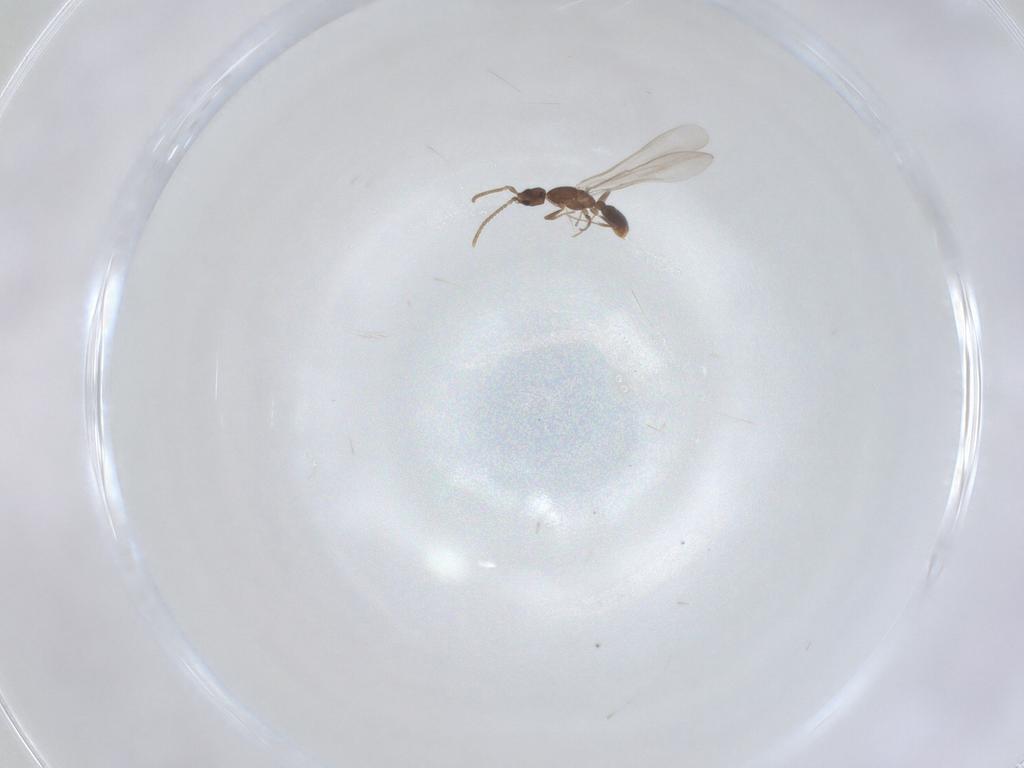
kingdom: Animalia
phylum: Arthropoda
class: Insecta
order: Hymenoptera
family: Formicidae
